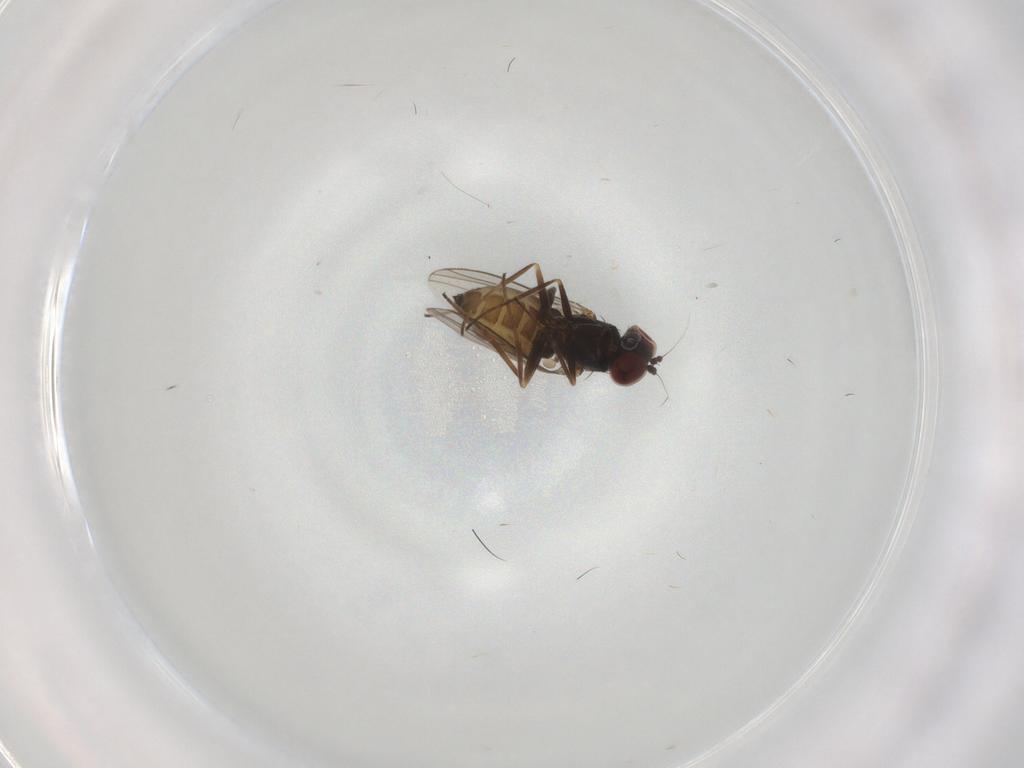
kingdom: Animalia
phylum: Arthropoda
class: Insecta
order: Diptera
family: Dolichopodidae
